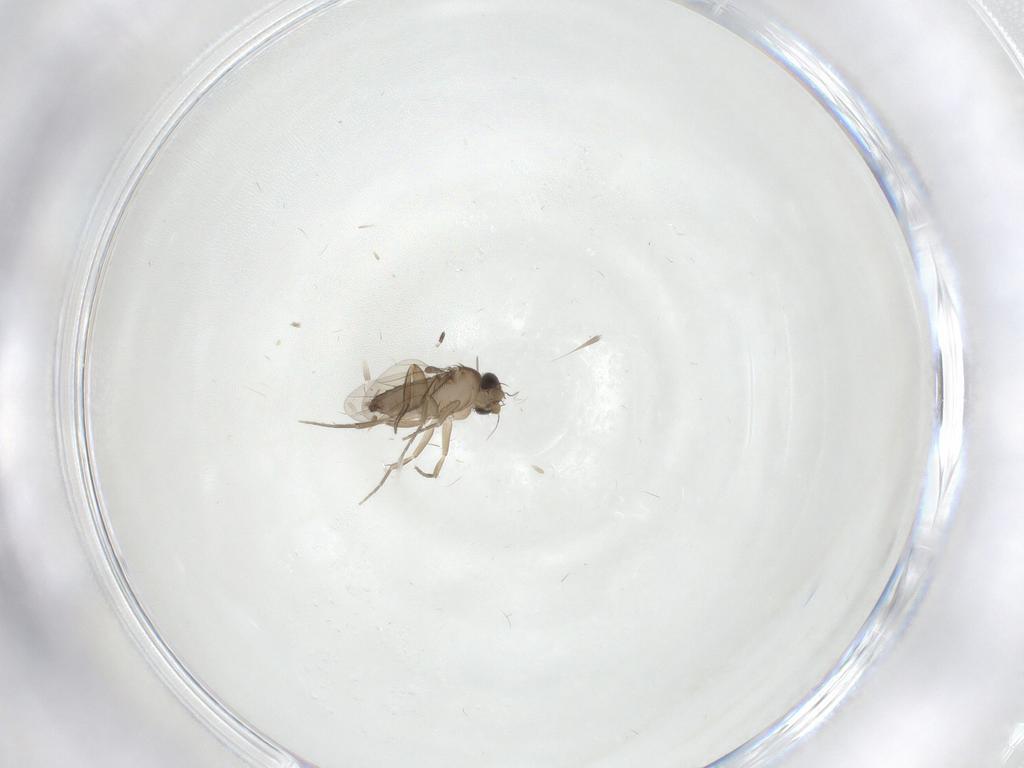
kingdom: Animalia
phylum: Arthropoda
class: Insecta
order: Diptera
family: Phoridae
